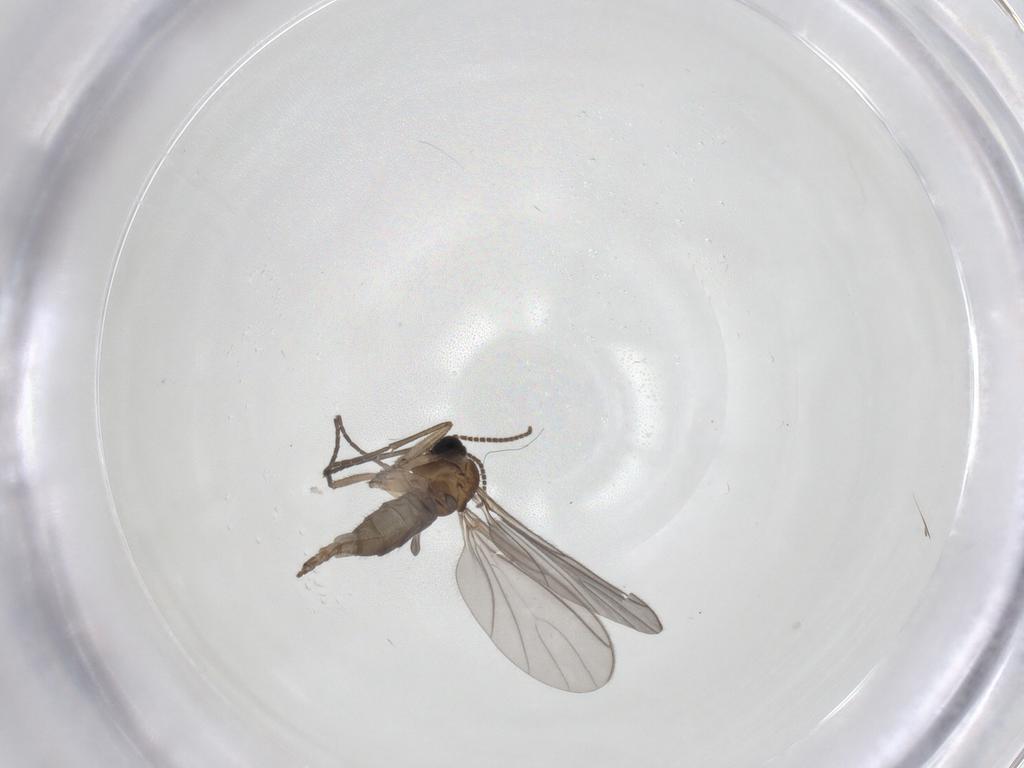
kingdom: Animalia
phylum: Arthropoda
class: Insecta
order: Diptera
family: Sciaridae
